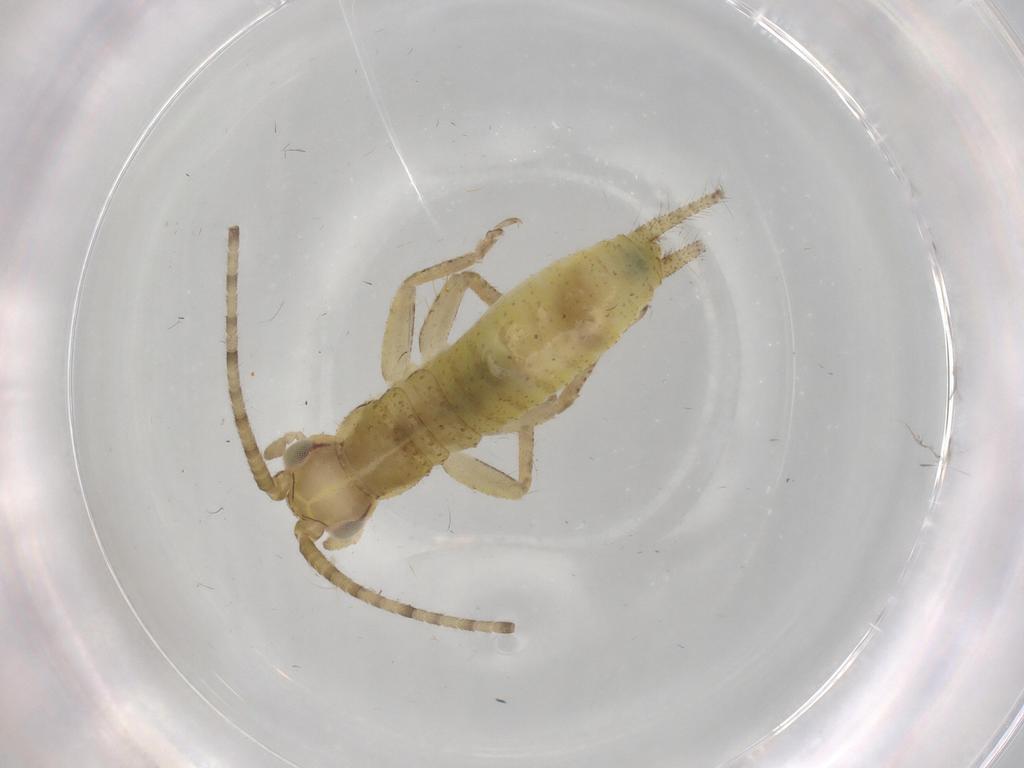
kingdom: Animalia
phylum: Arthropoda
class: Insecta
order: Orthoptera
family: Gryllidae
